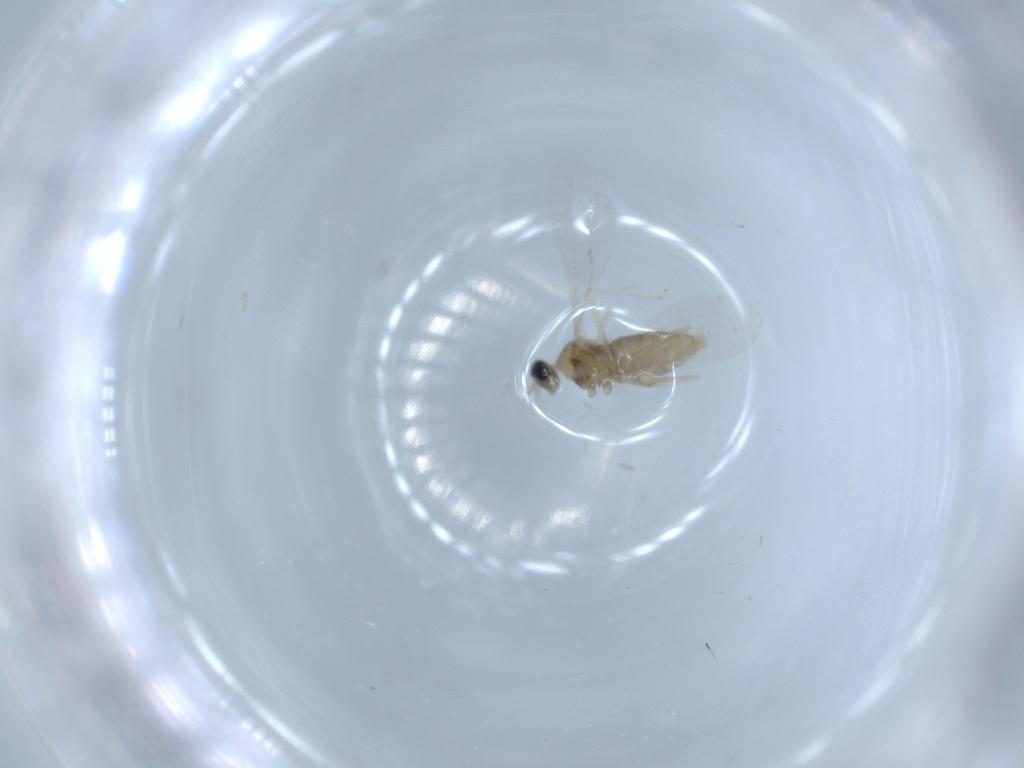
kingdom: Animalia
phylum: Arthropoda
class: Insecta
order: Diptera
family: Cecidomyiidae
